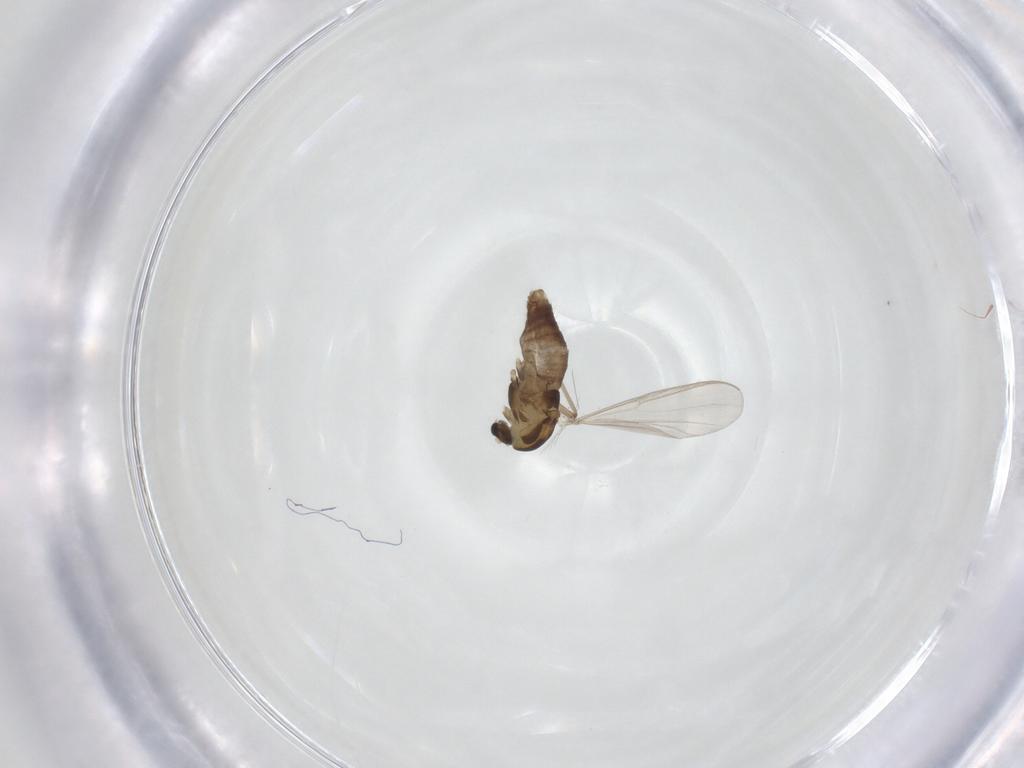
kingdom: Animalia
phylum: Arthropoda
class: Insecta
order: Diptera
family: Chironomidae
